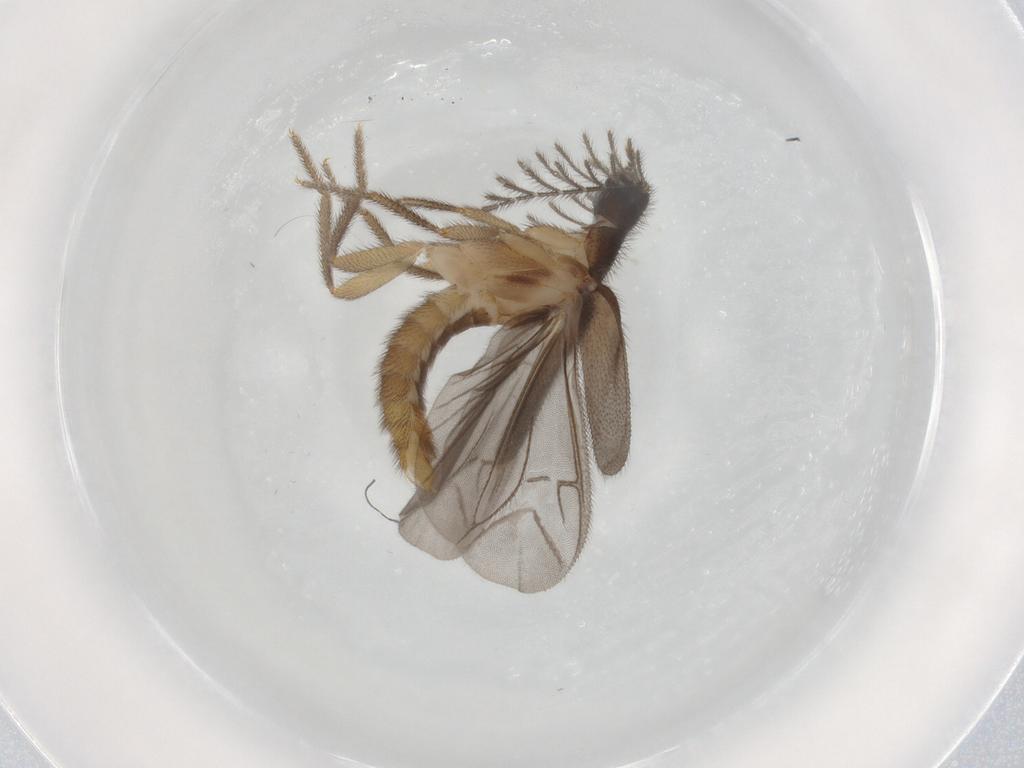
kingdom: Animalia
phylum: Arthropoda
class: Insecta
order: Coleoptera
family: Phengodidae
